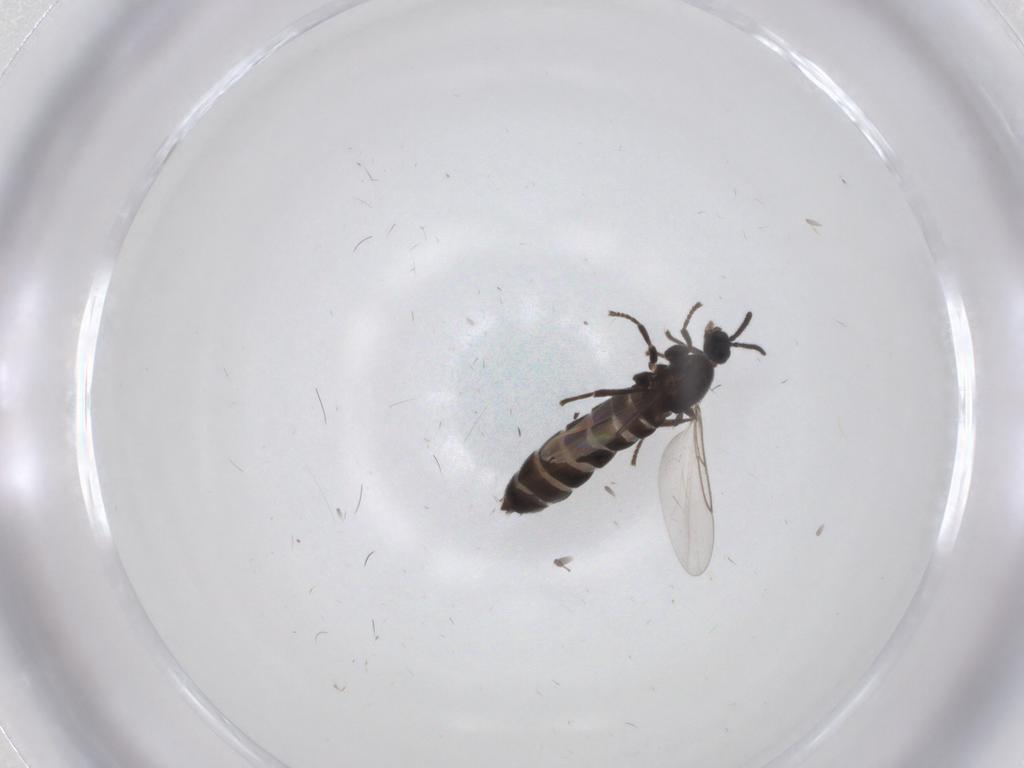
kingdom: Animalia
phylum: Arthropoda
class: Insecta
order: Diptera
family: Scatopsidae
